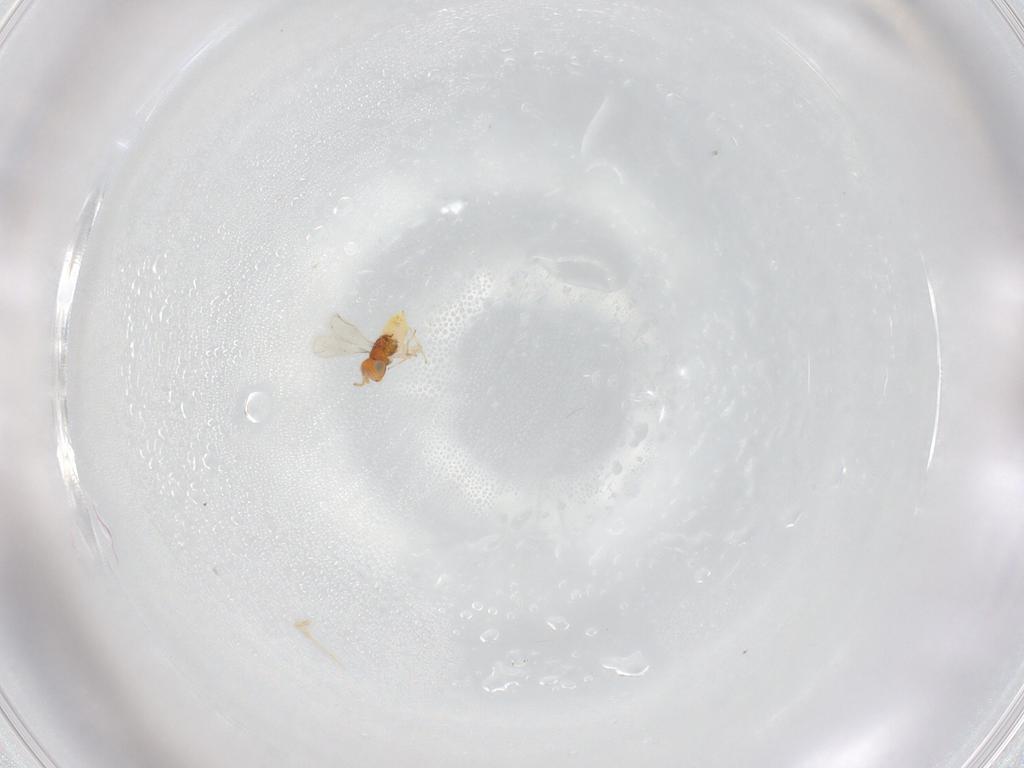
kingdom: Animalia
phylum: Arthropoda
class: Insecta
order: Hymenoptera
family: Aphelinidae
